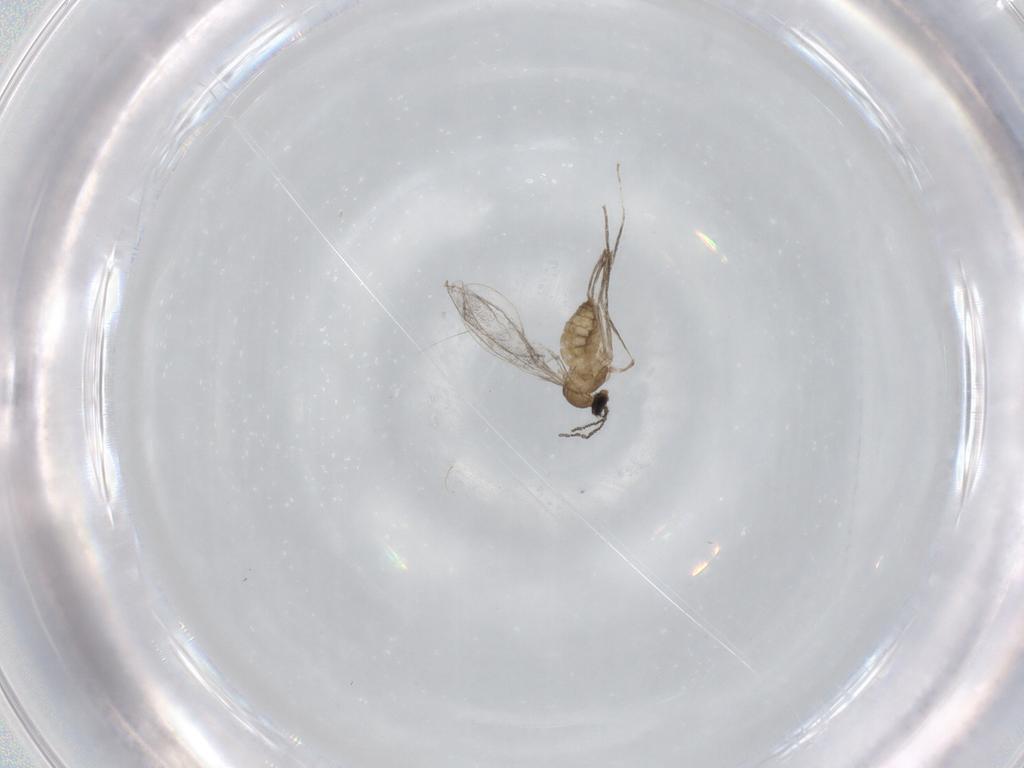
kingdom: Animalia
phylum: Arthropoda
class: Insecta
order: Diptera
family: Cecidomyiidae
